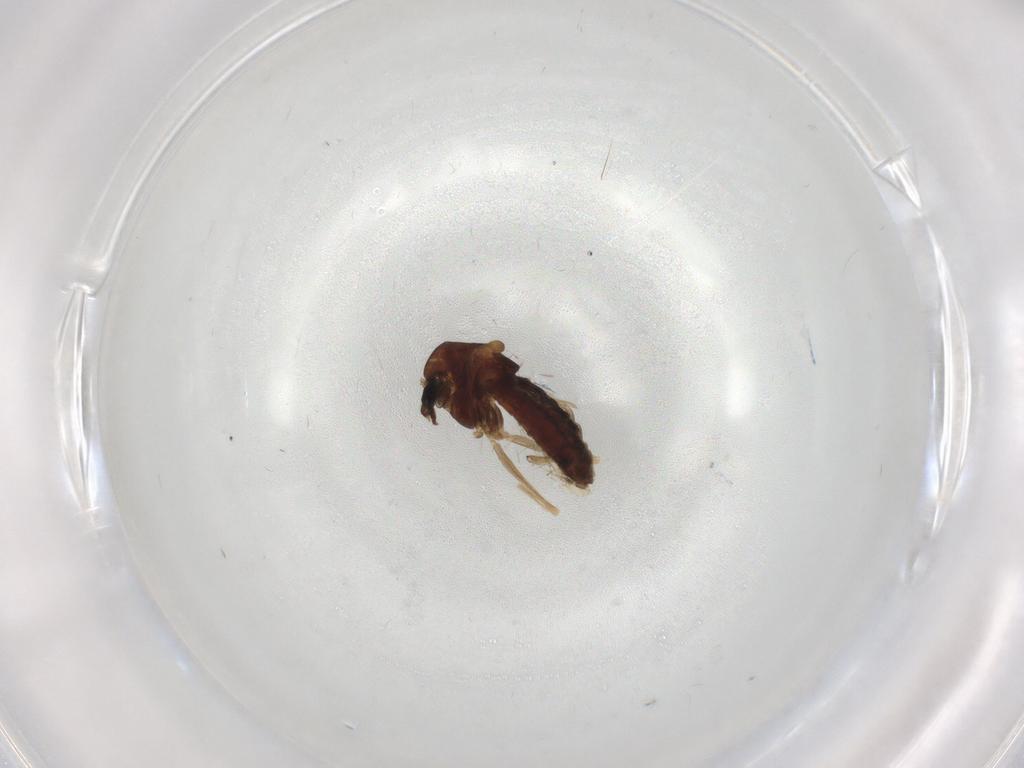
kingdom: Animalia
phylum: Arthropoda
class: Insecta
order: Diptera
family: Chironomidae
